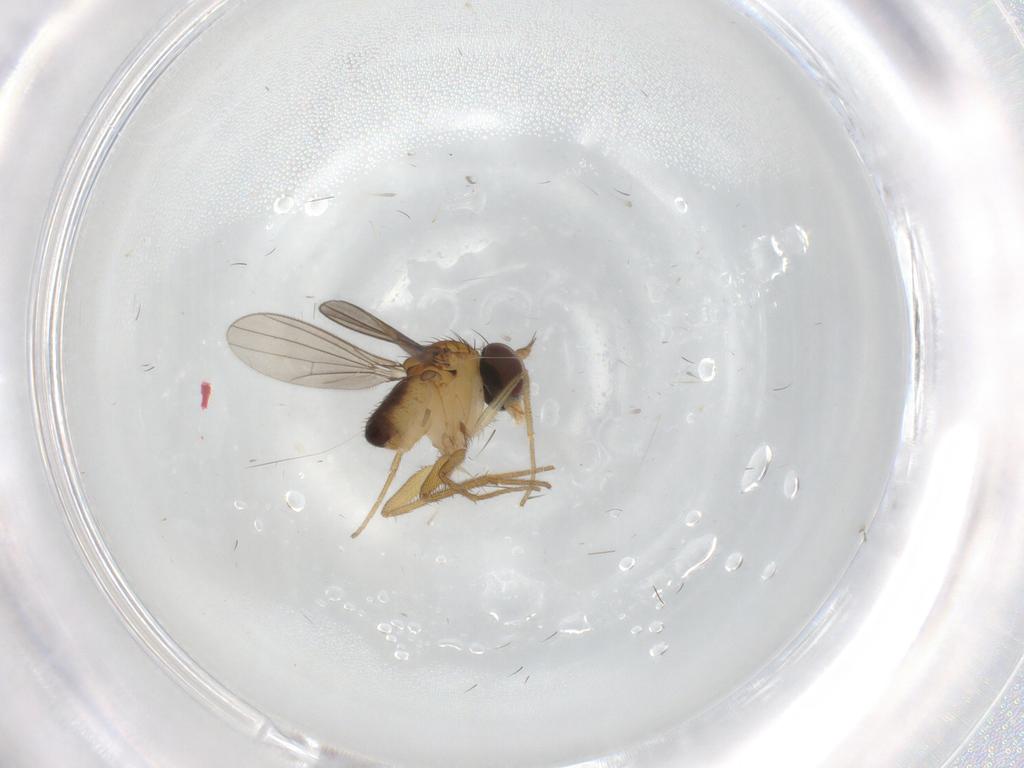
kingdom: Animalia
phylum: Arthropoda
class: Insecta
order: Diptera
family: Dolichopodidae
